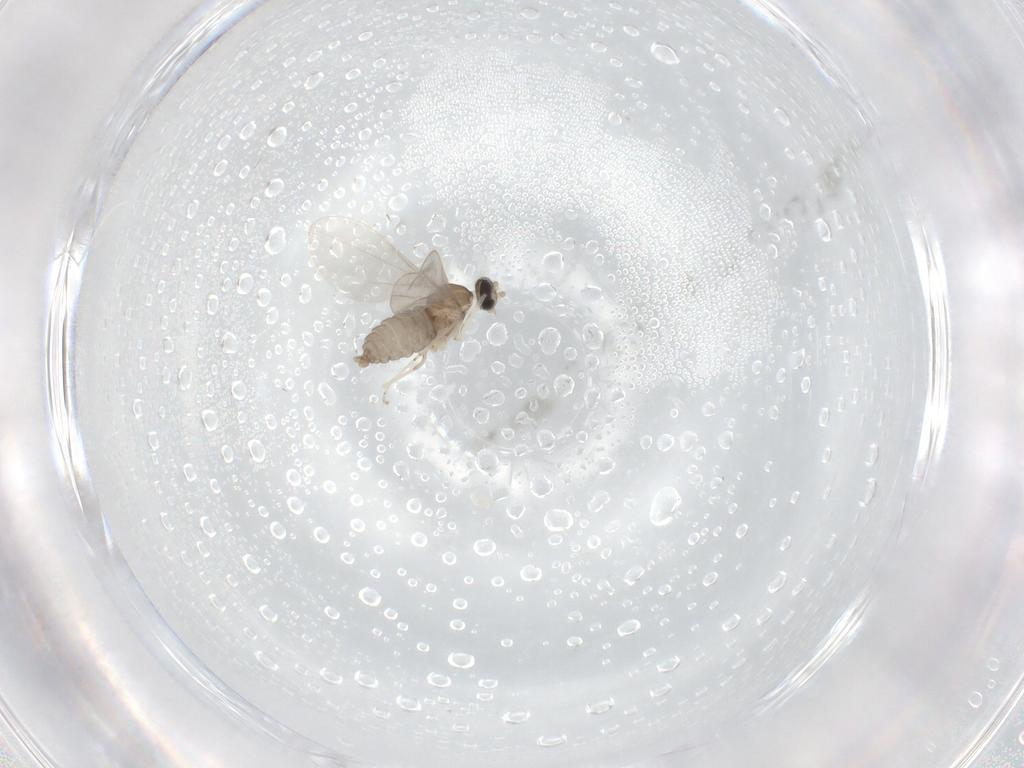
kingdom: Animalia
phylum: Arthropoda
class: Insecta
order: Diptera
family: Cecidomyiidae
